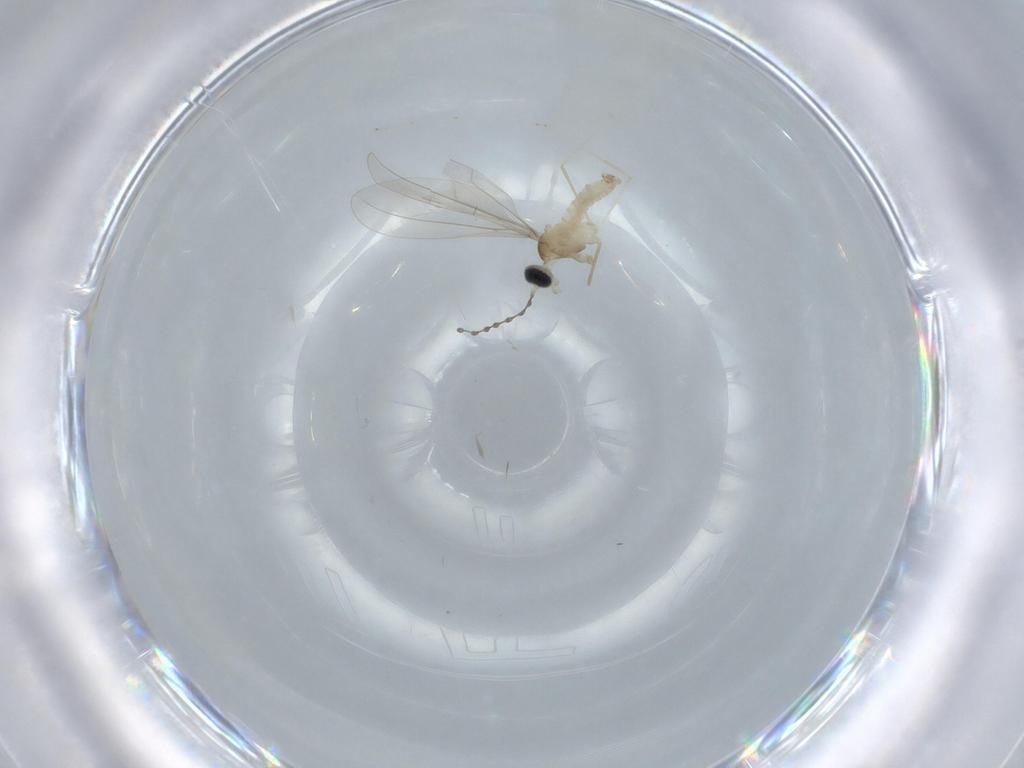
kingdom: Animalia
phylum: Arthropoda
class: Insecta
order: Diptera
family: Cecidomyiidae
